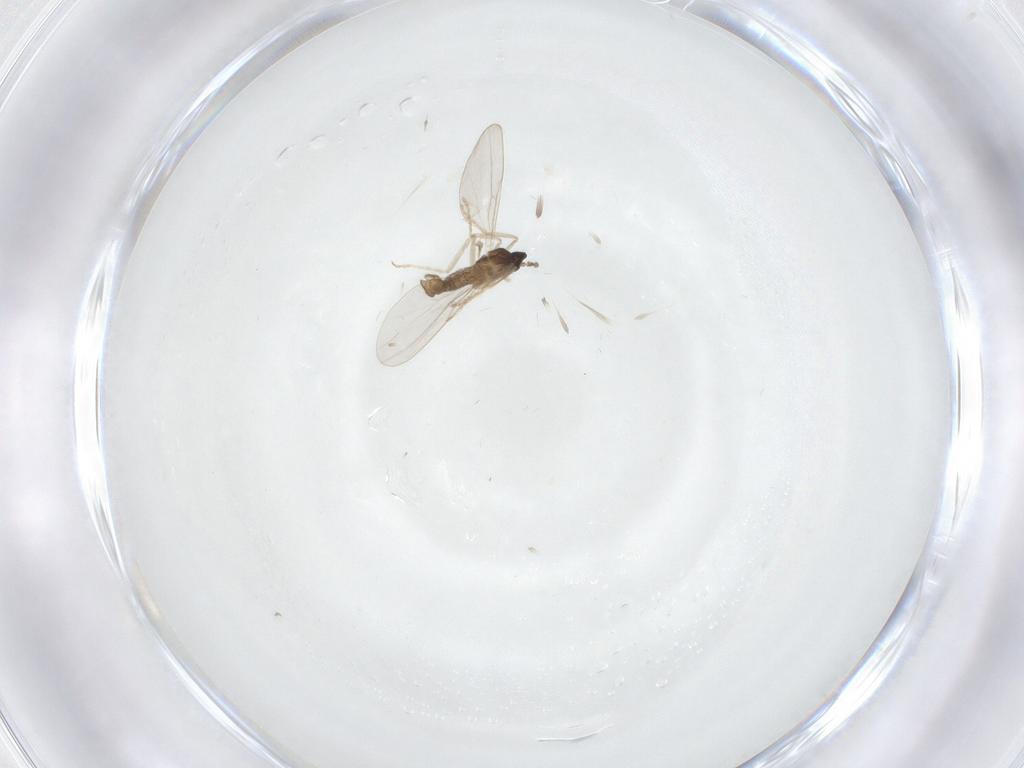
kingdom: Animalia
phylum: Arthropoda
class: Insecta
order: Diptera
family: Cecidomyiidae
